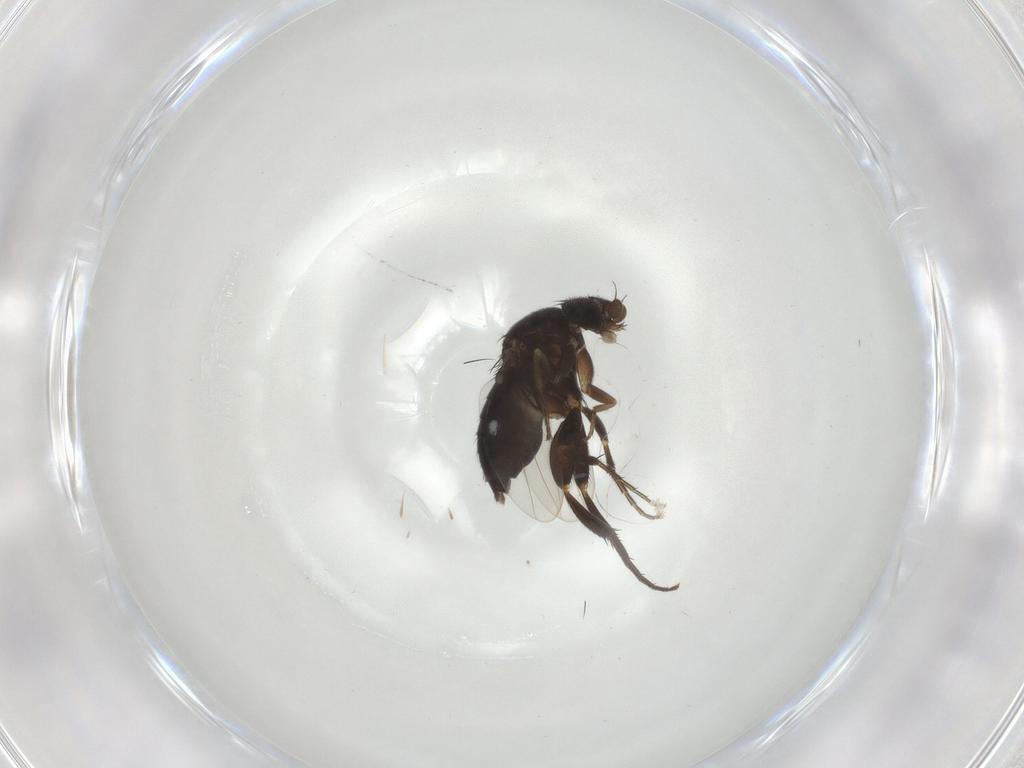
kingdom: Animalia
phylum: Arthropoda
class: Insecta
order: Diptera
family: Phoridae
